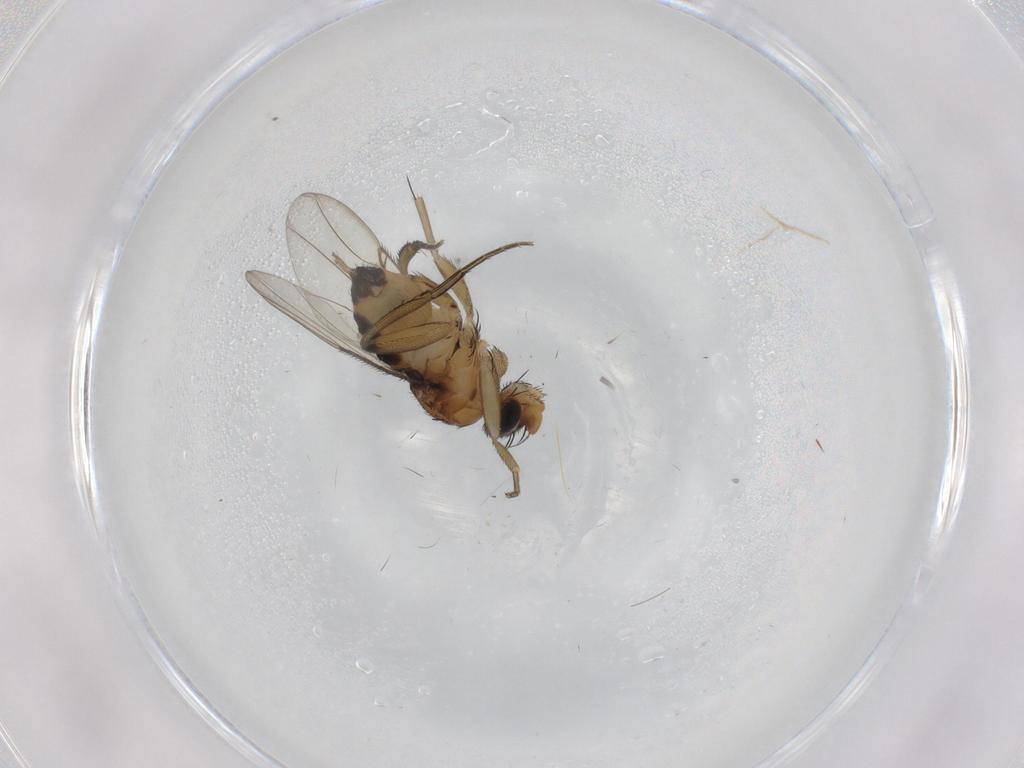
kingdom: Animalia
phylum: Arthropoda
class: Insecta
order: Diptera
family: Phoridae
